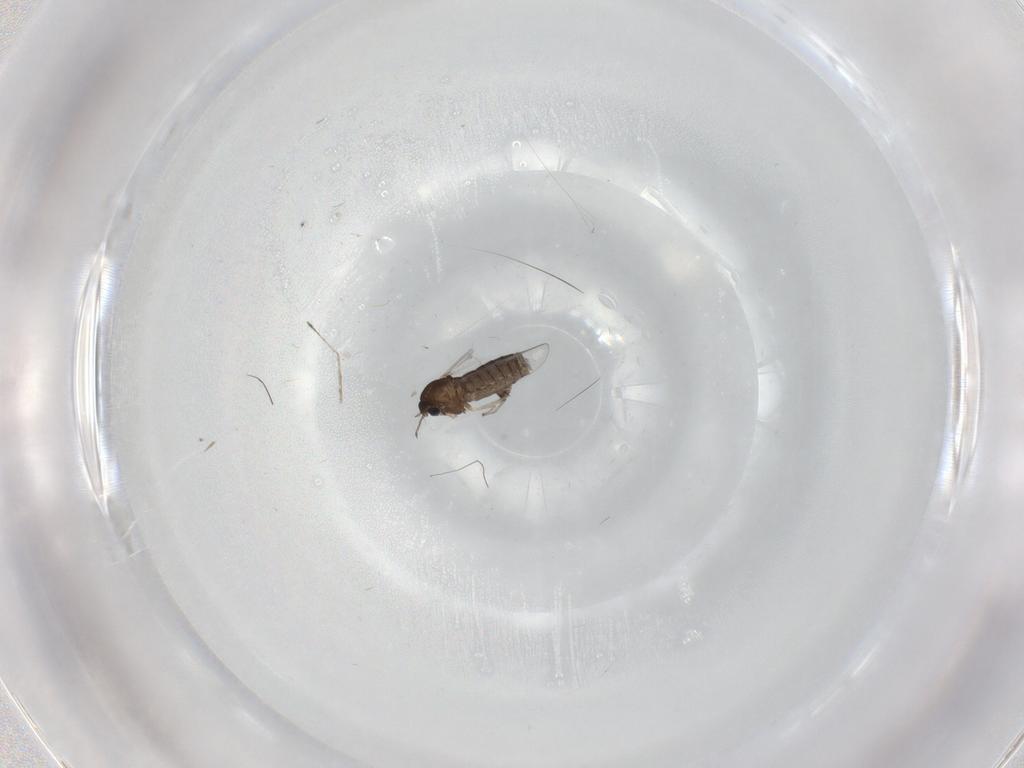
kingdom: Animalia
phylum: Arthropoda
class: Insecta
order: Diptera
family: Chironomidae
